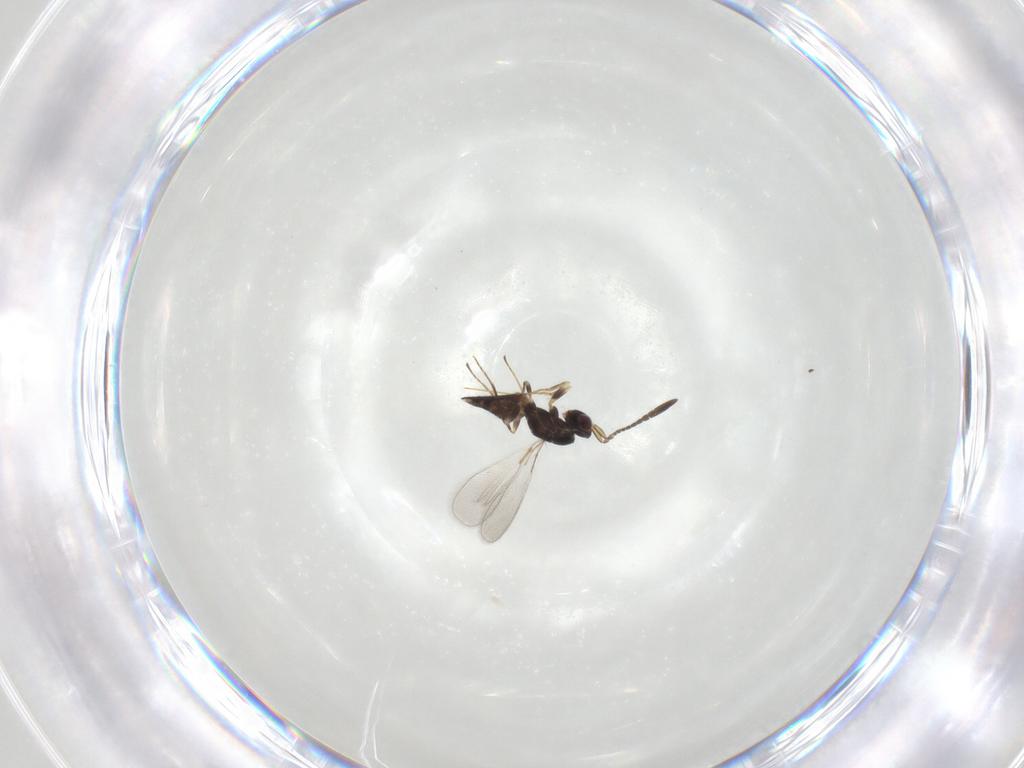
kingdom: Animalia
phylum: Arthropoda
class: Insecta
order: Hymenoptera
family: Mymaridae
